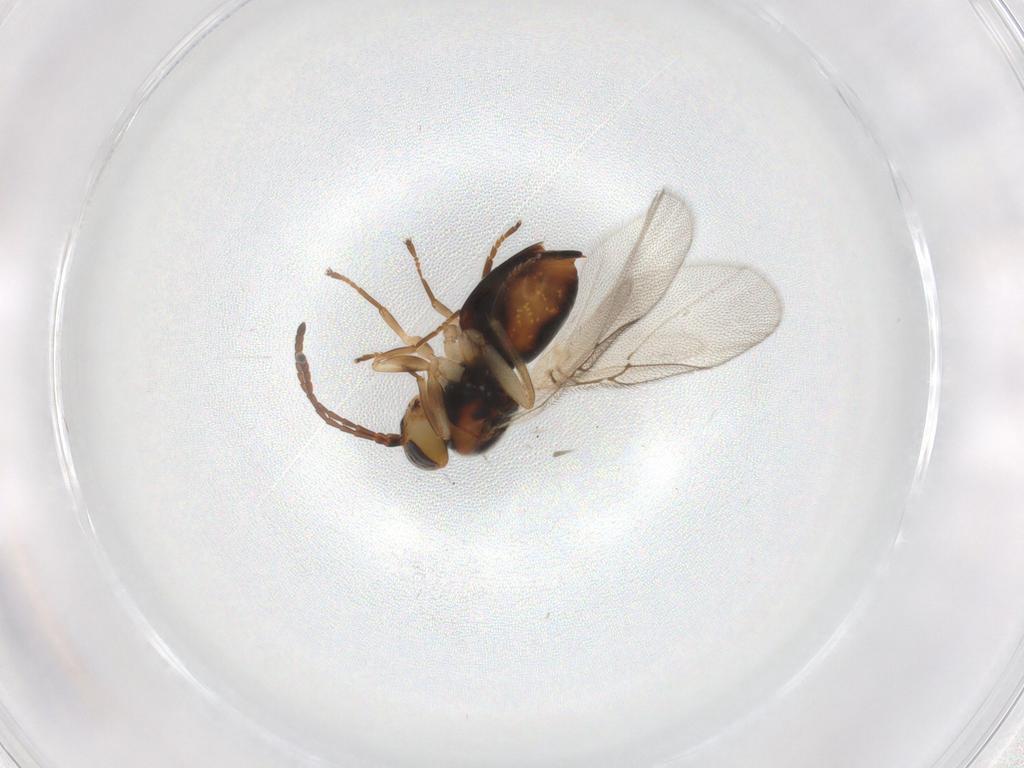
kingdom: Animalia
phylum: Arthropoda
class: Insecta
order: Hymenoptera
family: Cynipidae
